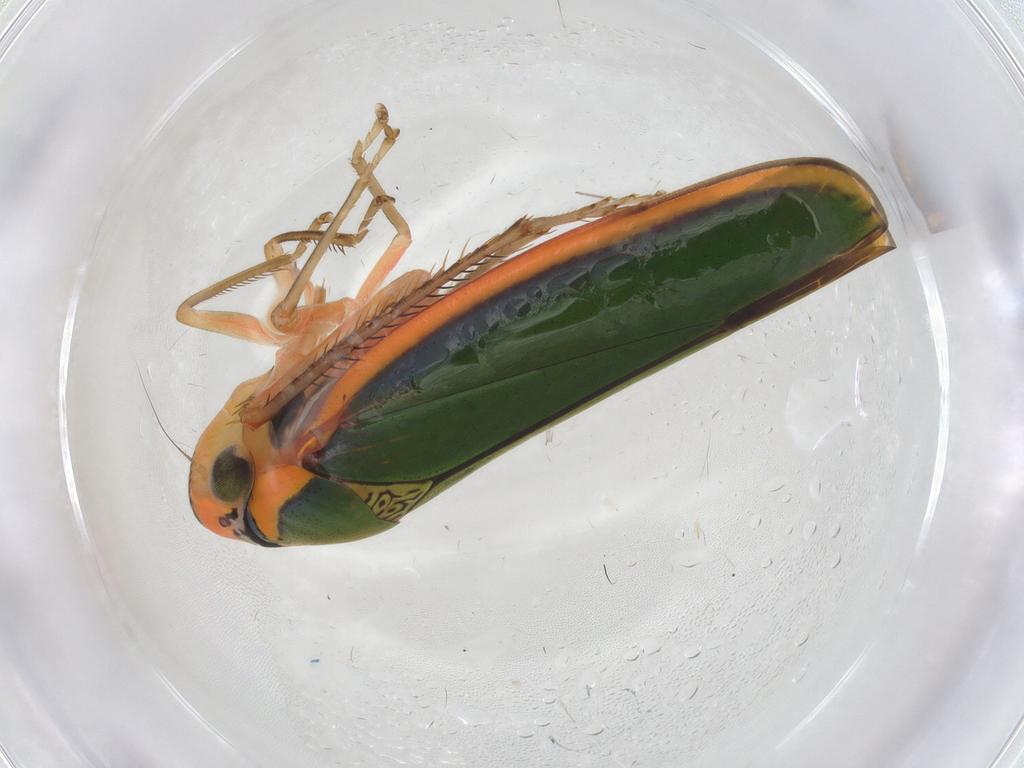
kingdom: Animalia
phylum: Arthropoda
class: Insecta
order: Hemiptera
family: Cicadellidae
